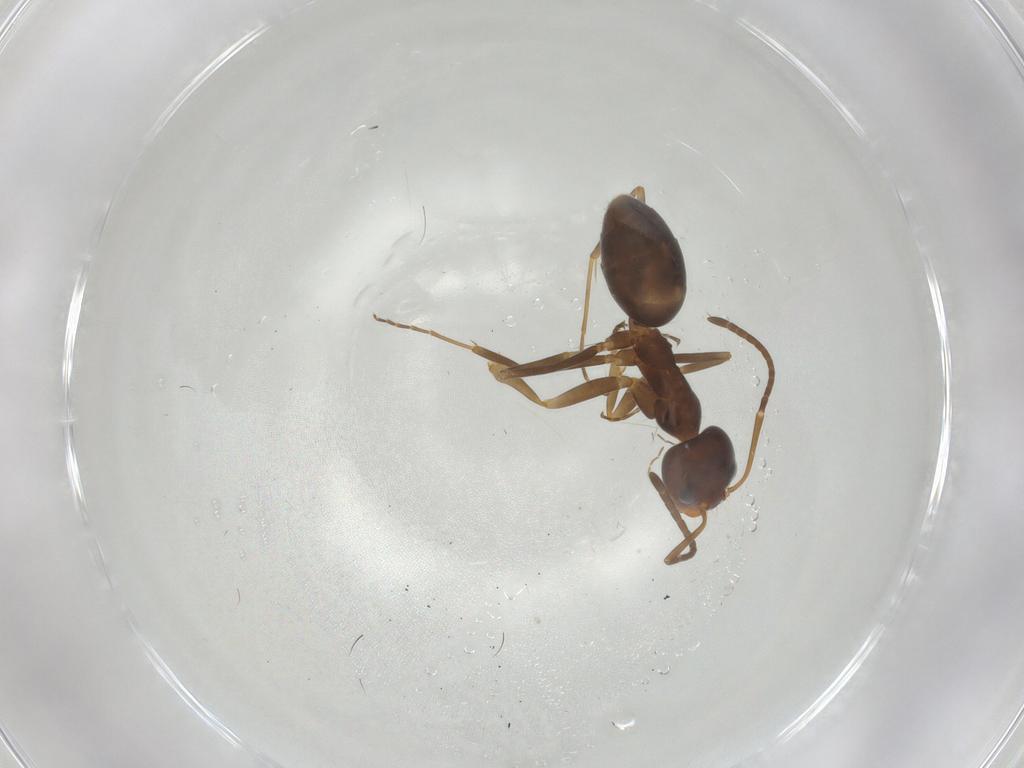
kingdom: Animalia
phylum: Arthropoda
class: Insecta
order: Hymenoptera
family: Formicidae
